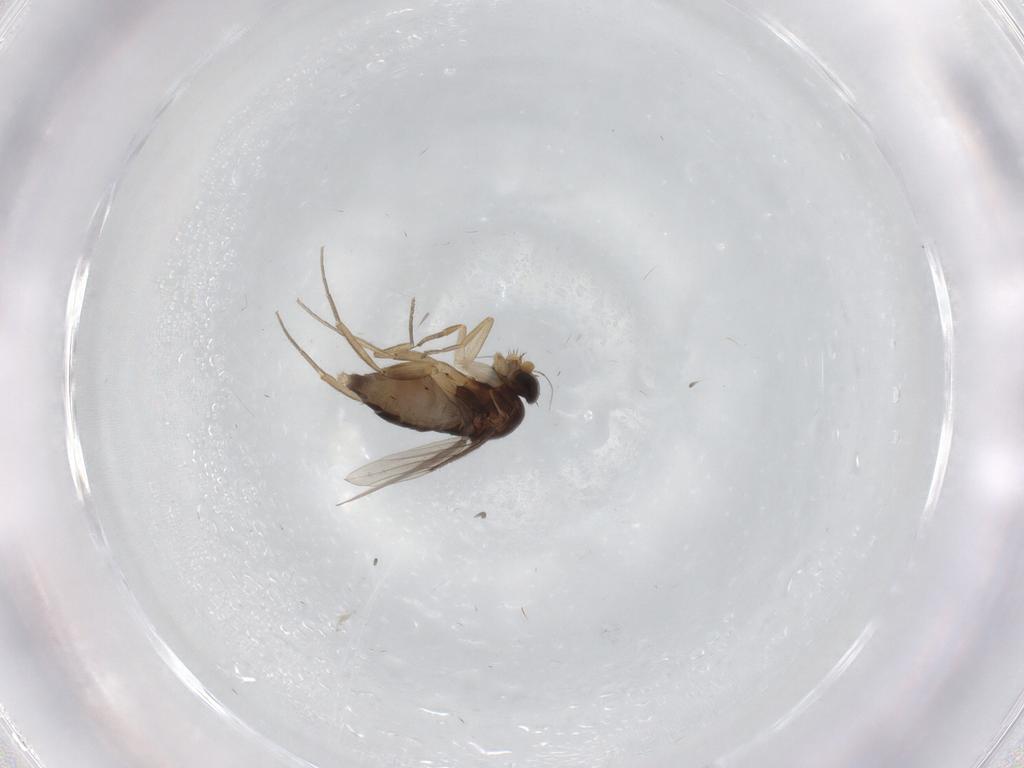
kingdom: Animalia
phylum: Arthropoda
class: Insecta
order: Diptera
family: Phoridae
